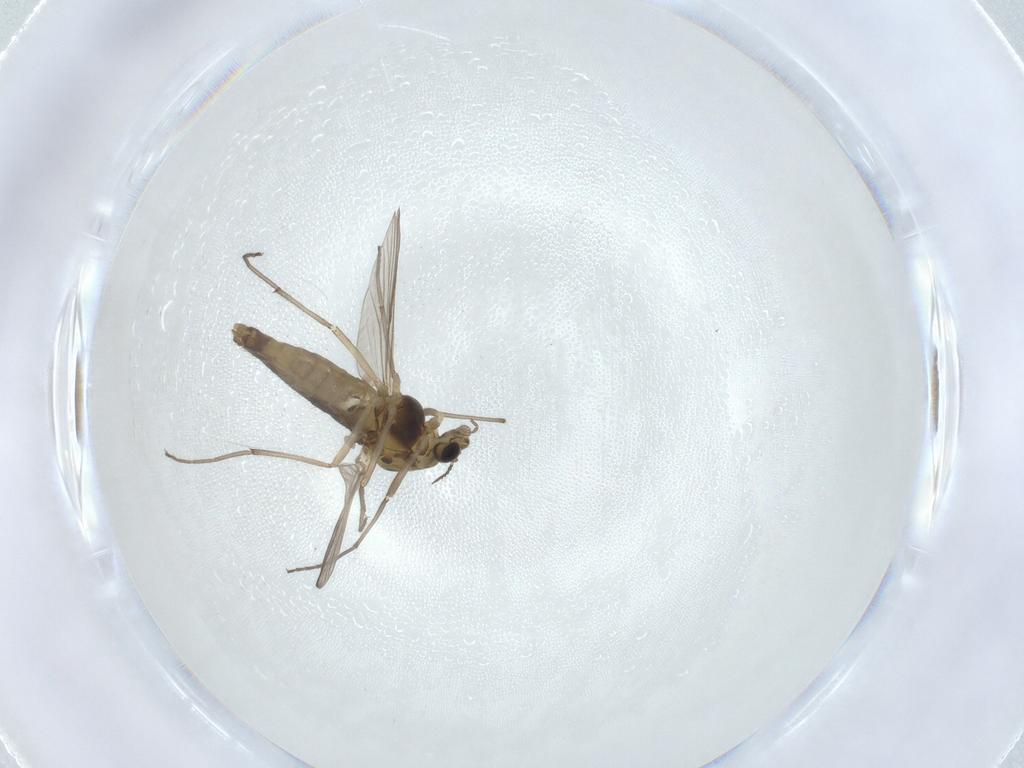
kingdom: Animalia
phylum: Arthropoda
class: Insecta
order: Diptera
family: Chironomidae
